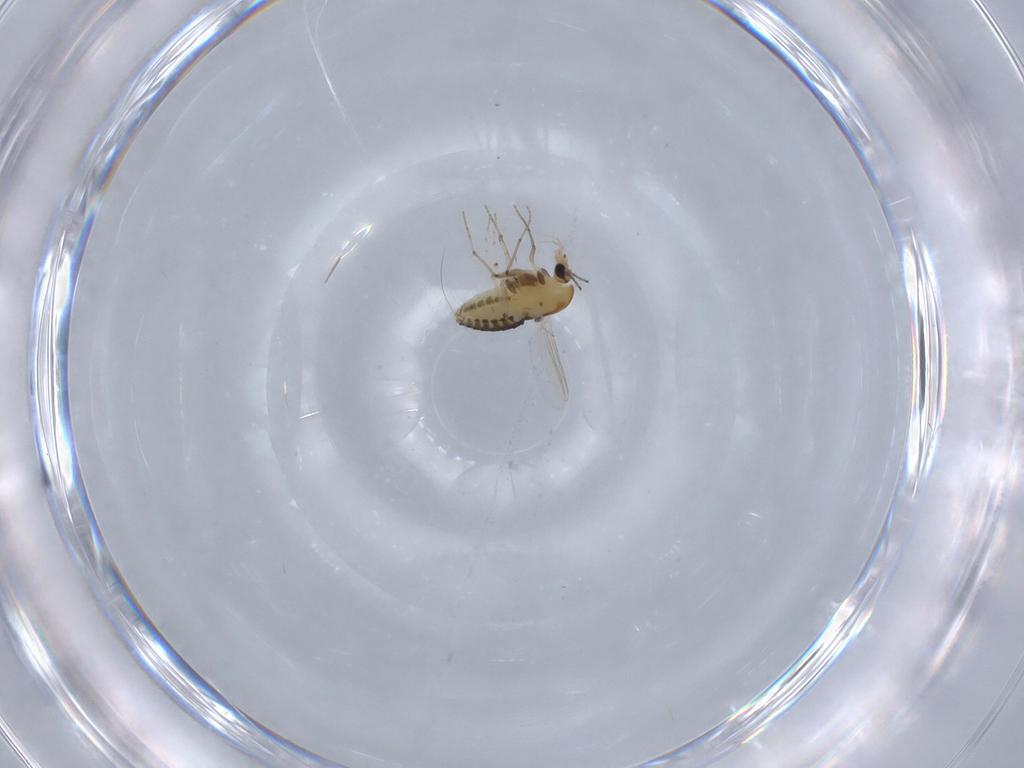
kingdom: Animalia
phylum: Arthropoda
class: Insecta
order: Diptera
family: Chironomidae
